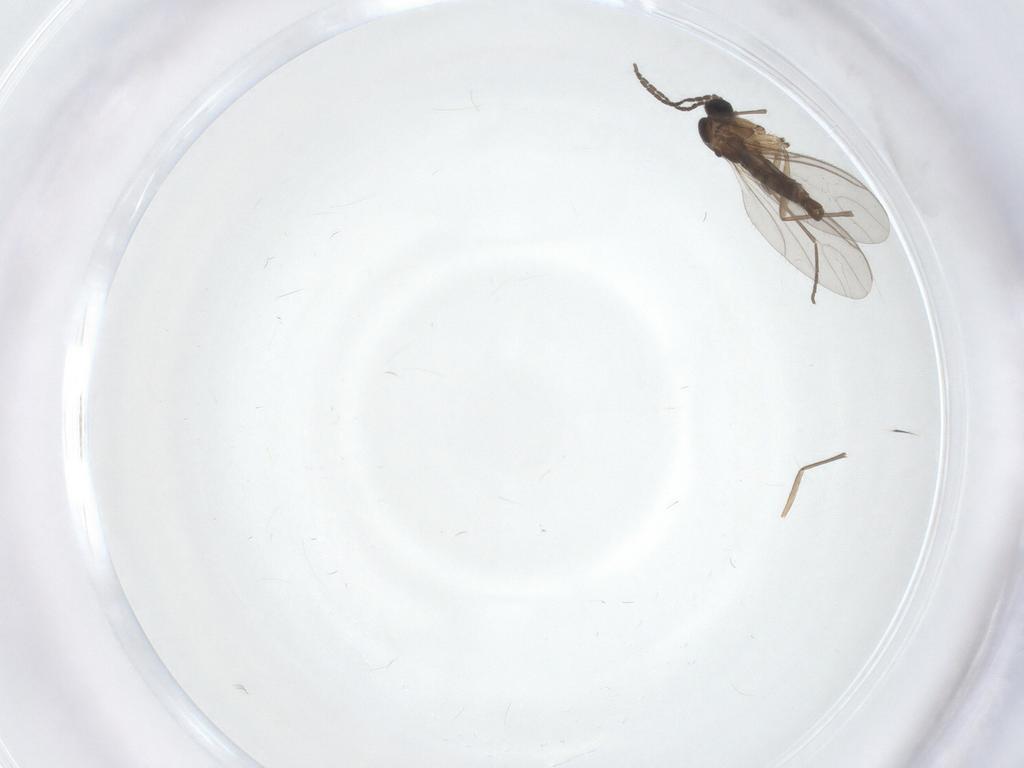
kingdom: Animalia
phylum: Arthropoda
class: Insecta
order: Diptera
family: Sciaridae
